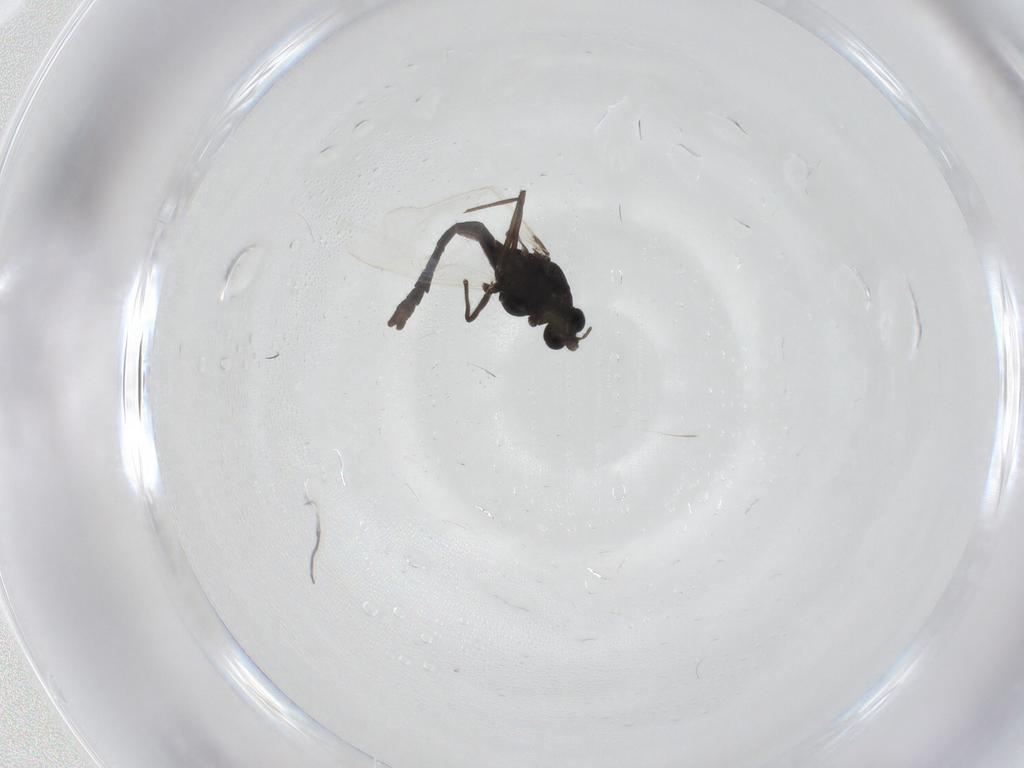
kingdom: Animalia
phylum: Arthropoda
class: Insecta
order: Diptera
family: Chironomidae
